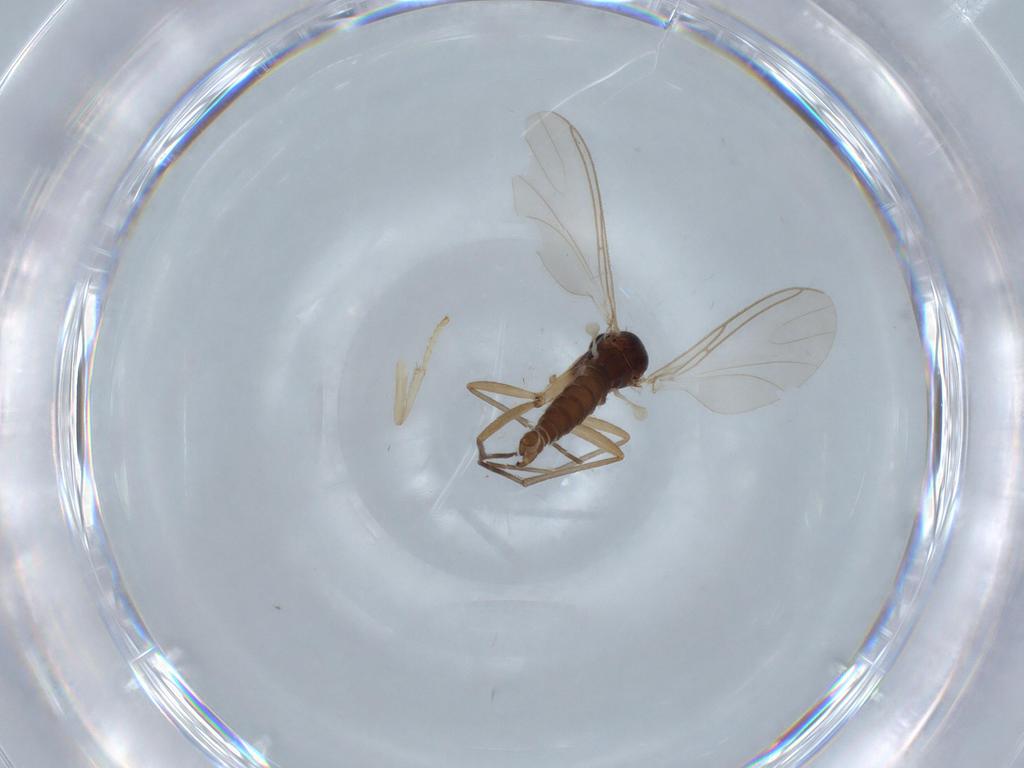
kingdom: Animalia
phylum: Arthropoda
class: Insecta
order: Diptera
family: Sciaridae
